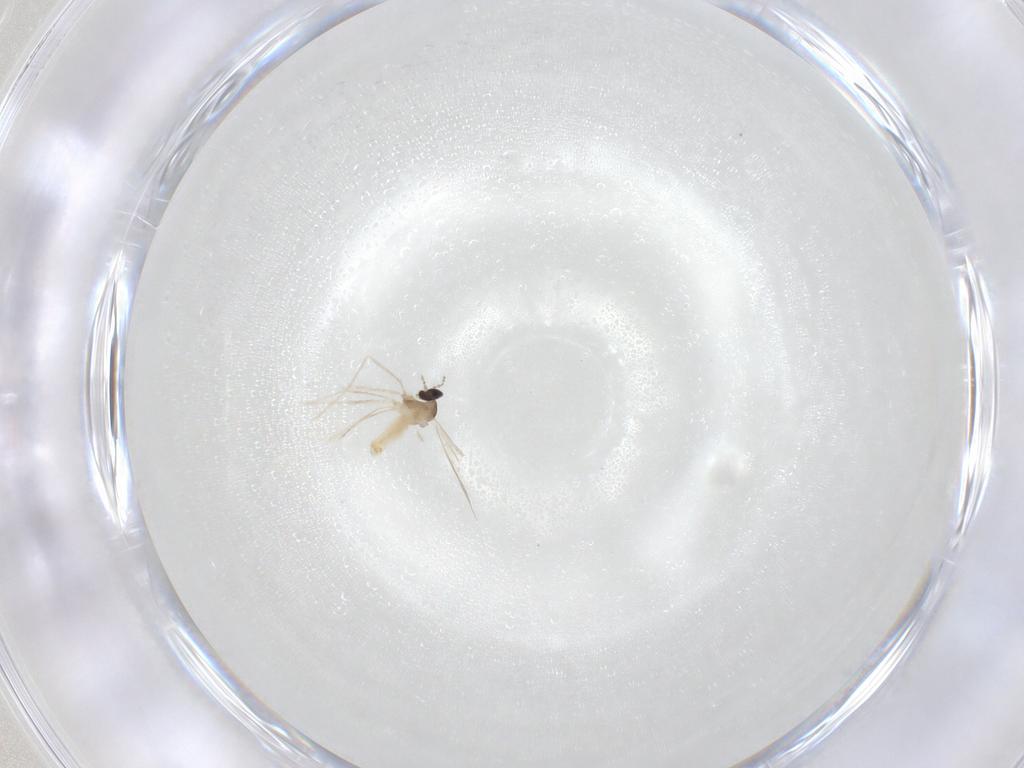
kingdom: Animalia
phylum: Arthropoda
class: Insecta
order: Diptera
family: Cecidomyiidae
